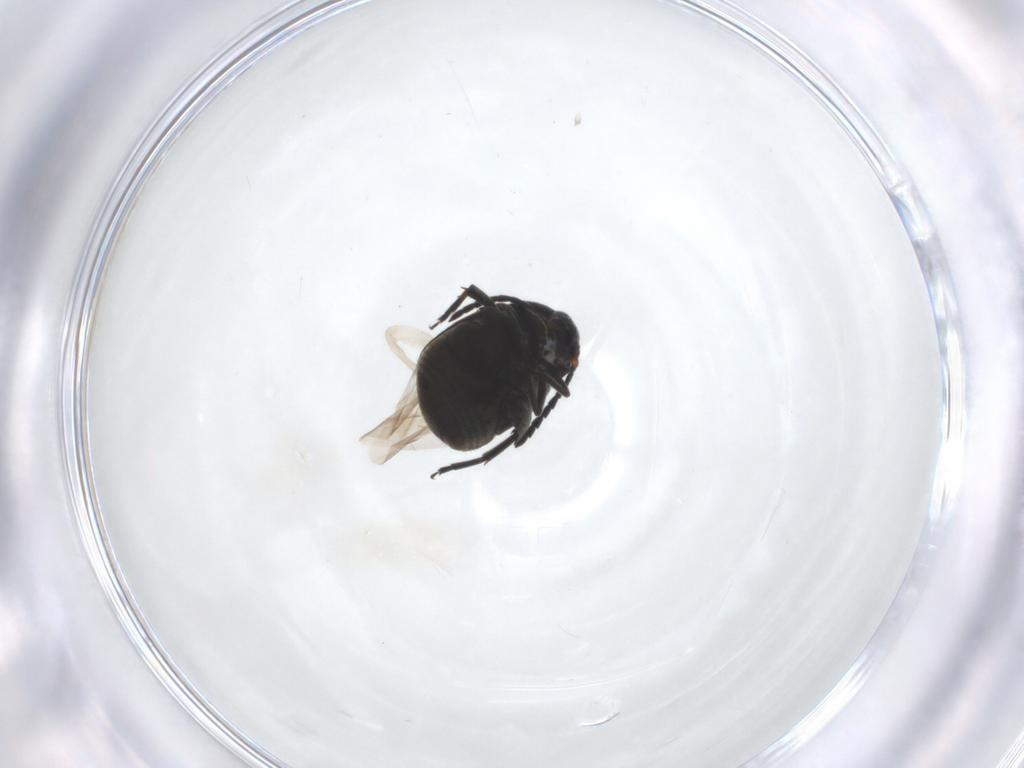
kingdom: Animalia
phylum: Arthropoda
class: Insecta
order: Coleoptera
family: Chrysomelidae
